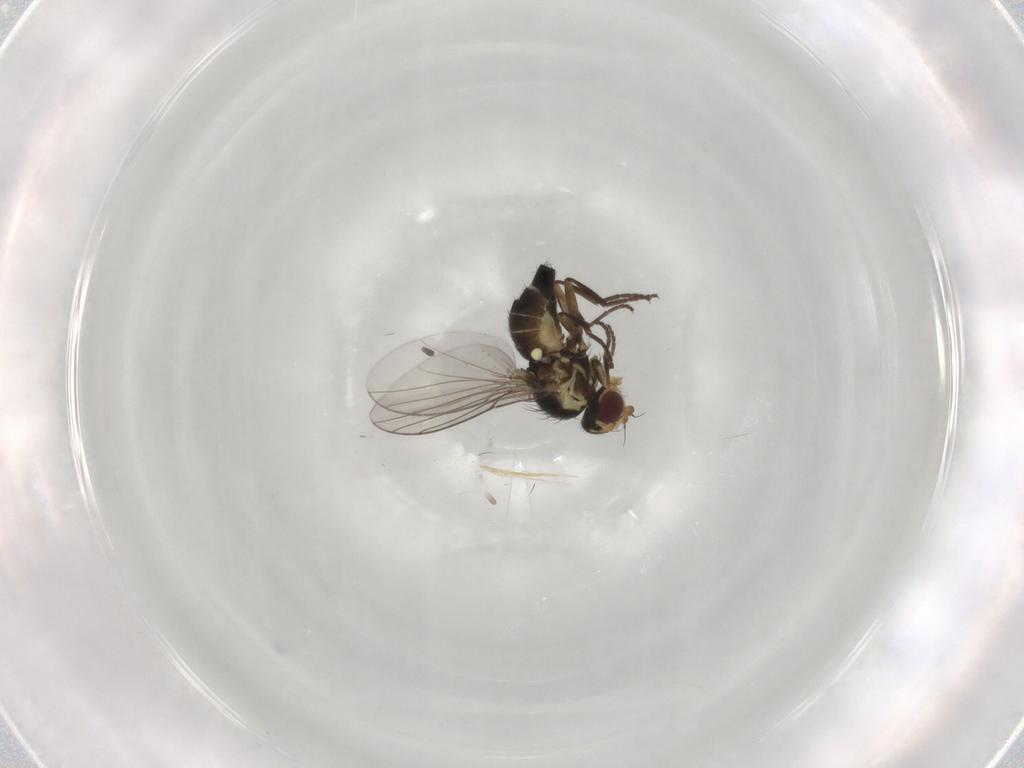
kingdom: Animalia
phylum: Arthropoda
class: Insecta
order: Diptera
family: Agromyzidae
